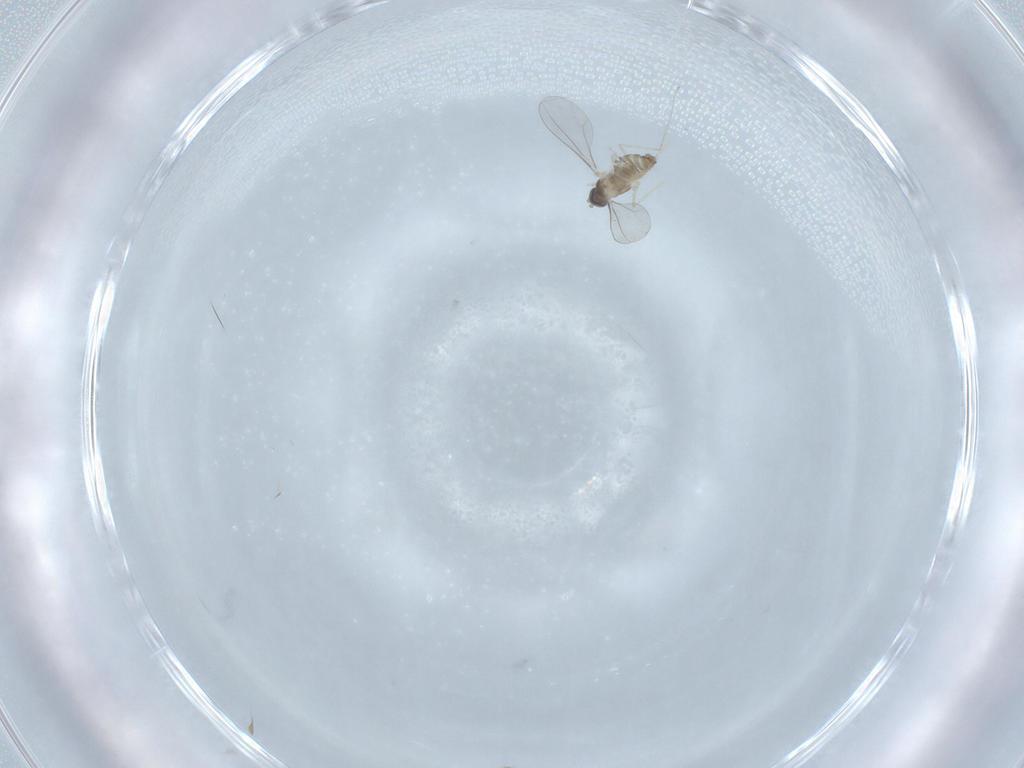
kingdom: Animalia
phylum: Arthropoda
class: Insecta
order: Diptera
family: Cecidomyiidae
